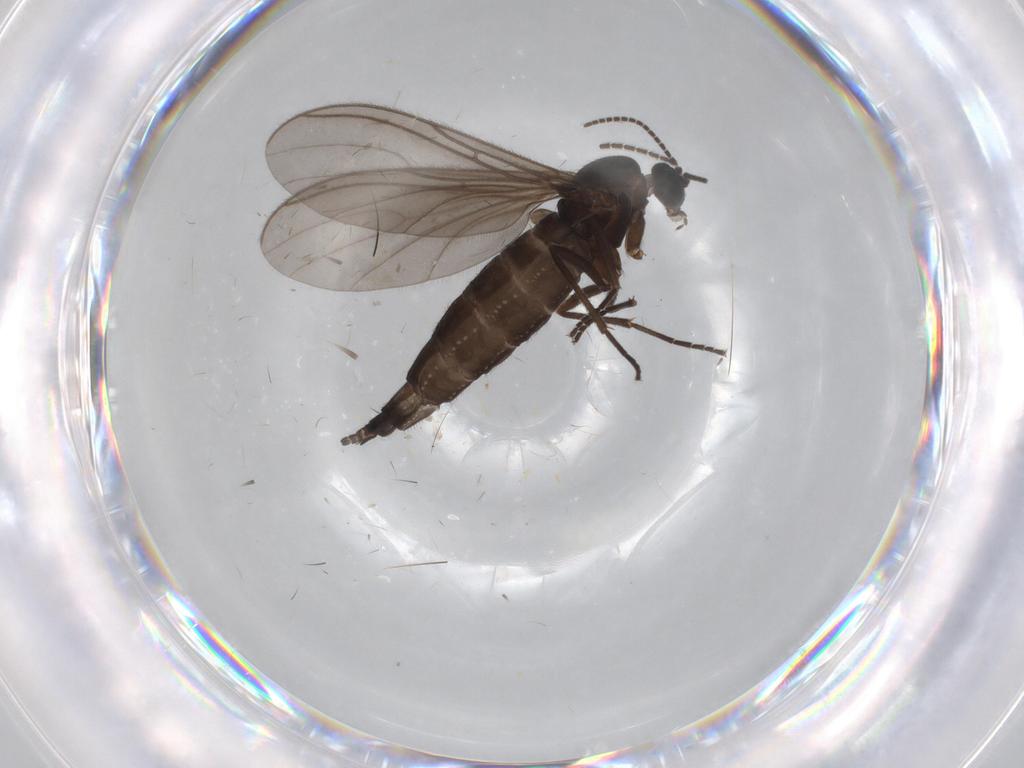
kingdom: Animalia
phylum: Arthropoda
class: Insecta
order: Diptera
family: Sciaridae
